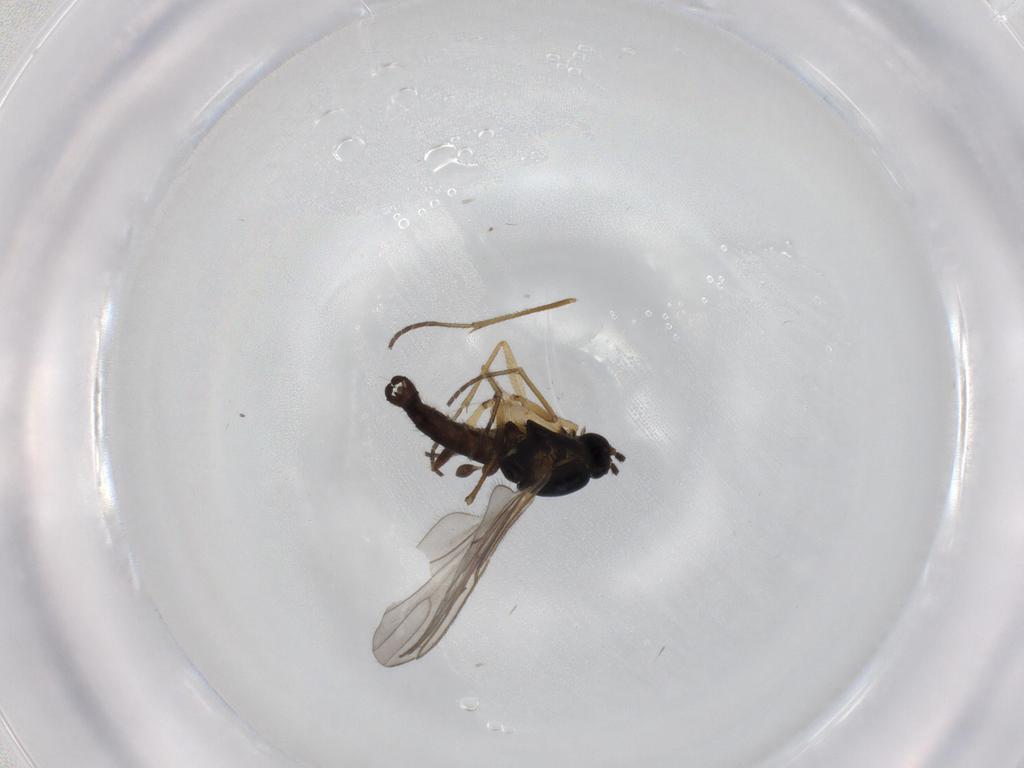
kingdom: Animalia
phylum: Arthropoda
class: Insecta
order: Diptera
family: Sciaridae
